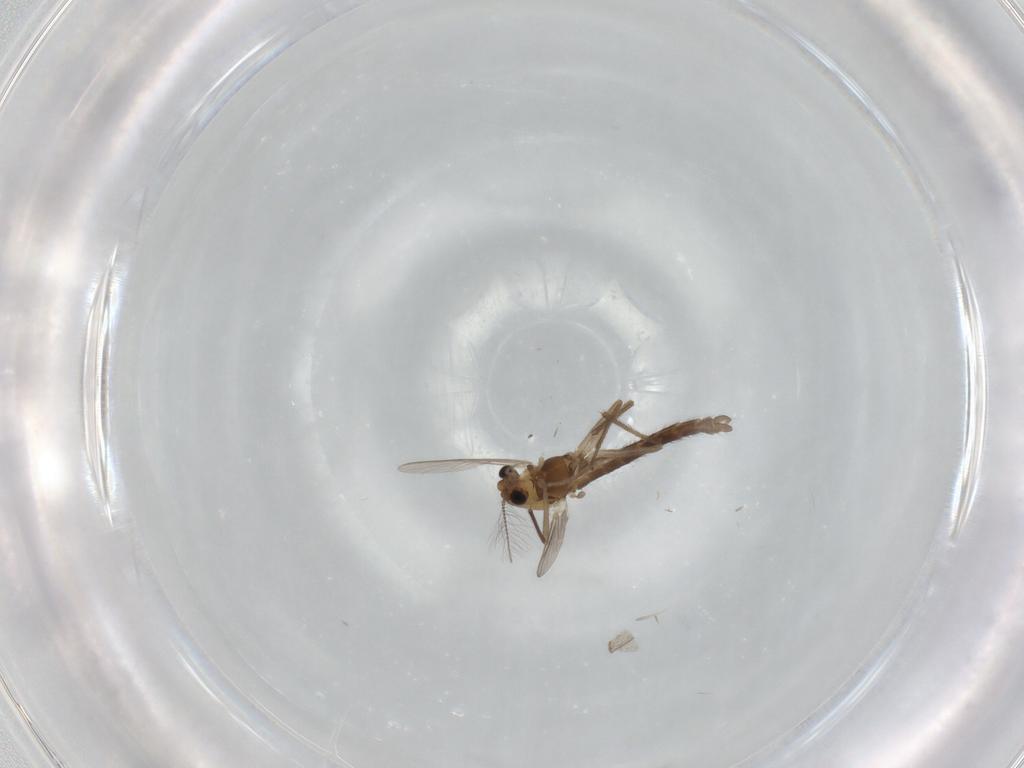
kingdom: Animalia
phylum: Arthropoda
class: Insecta
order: Diptera
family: Chironomidae
